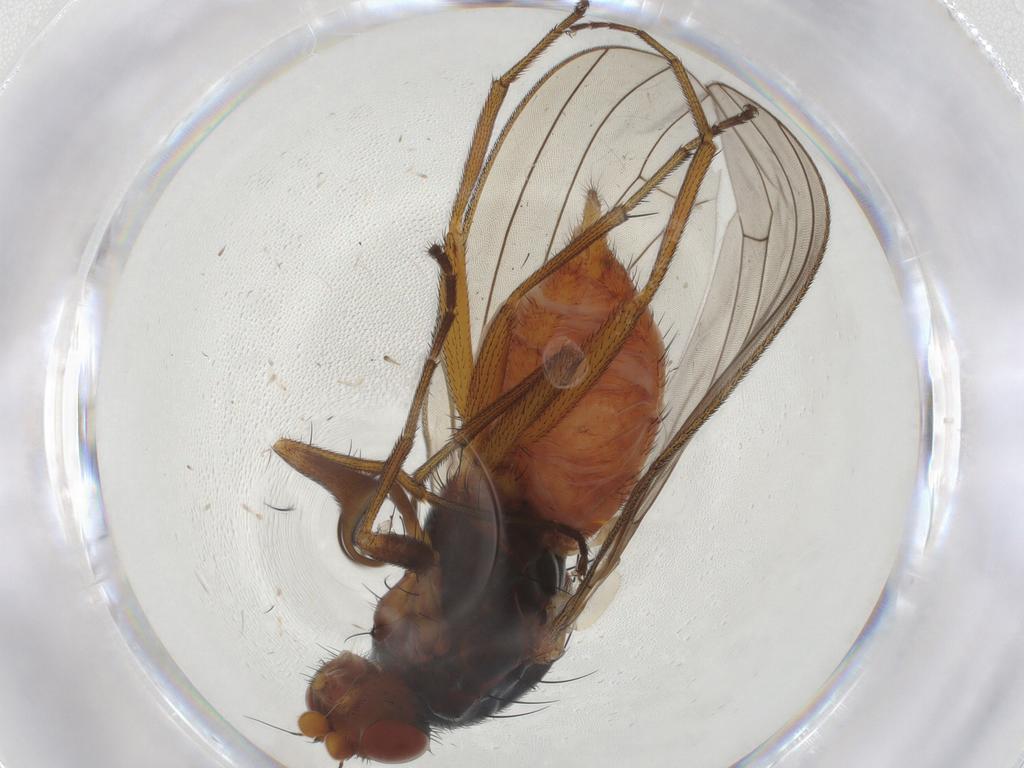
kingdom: Animalia
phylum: Arthropoda
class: Insecta
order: Diptera
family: Heleomyzidae
